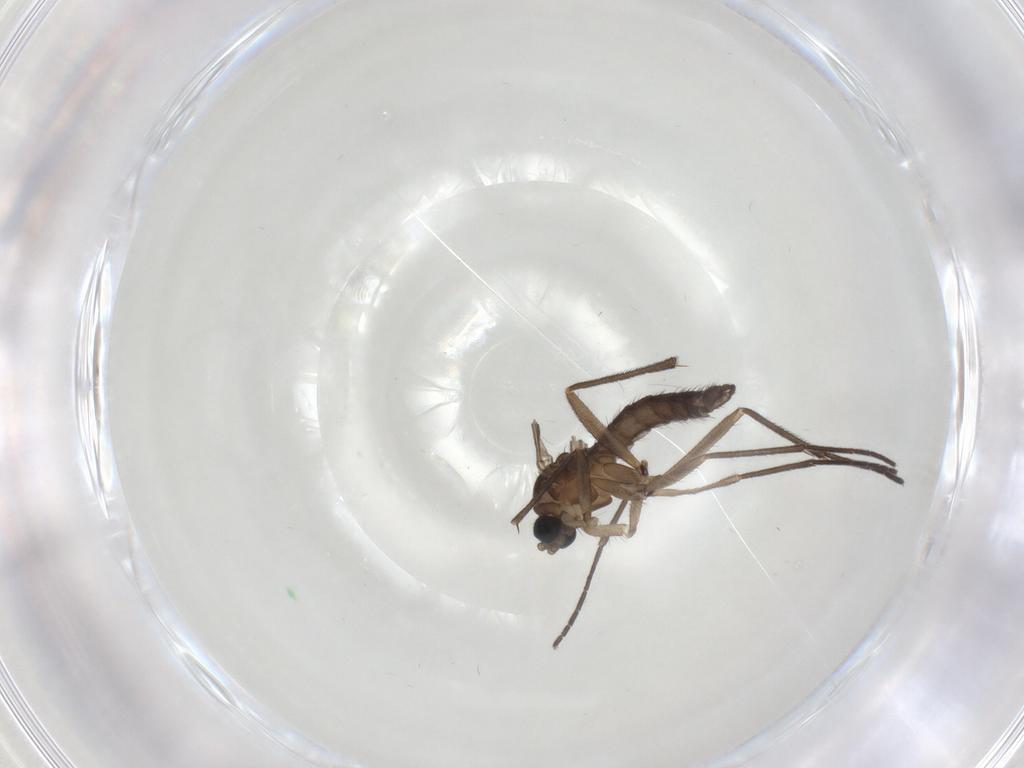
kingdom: Animalia
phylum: Arthropoda
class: Insecta
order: Diptera
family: Sciaridae
